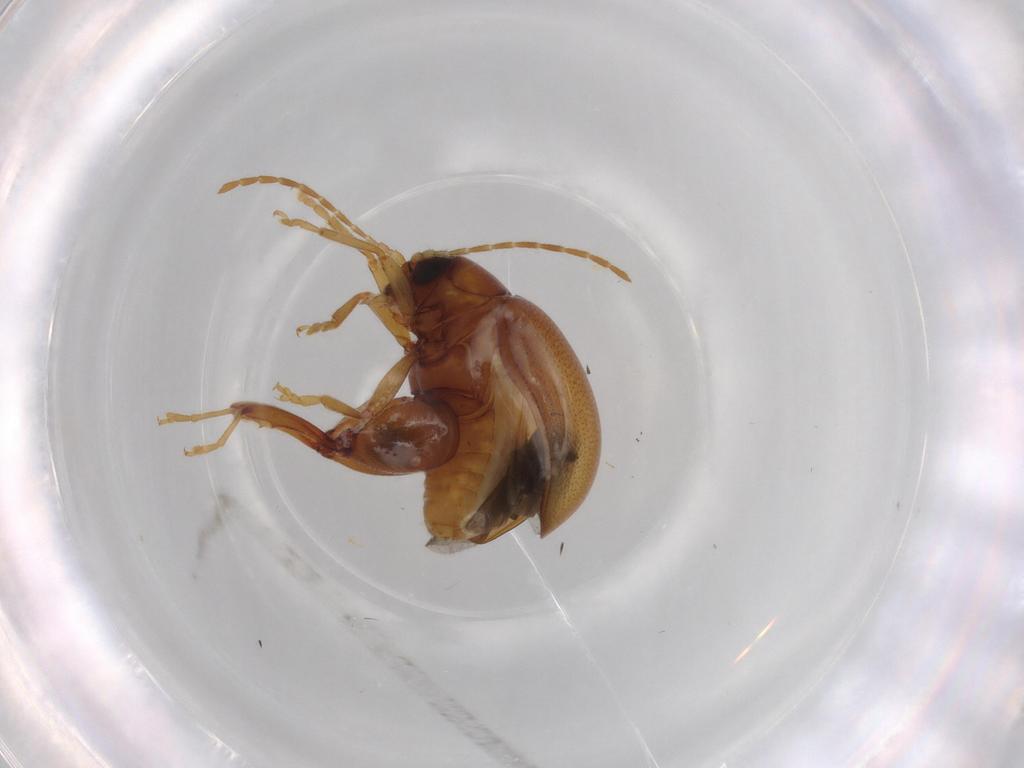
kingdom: Animalia
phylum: Arthropoda
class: Insecta
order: Coleoptera
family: Chrysomelidae
